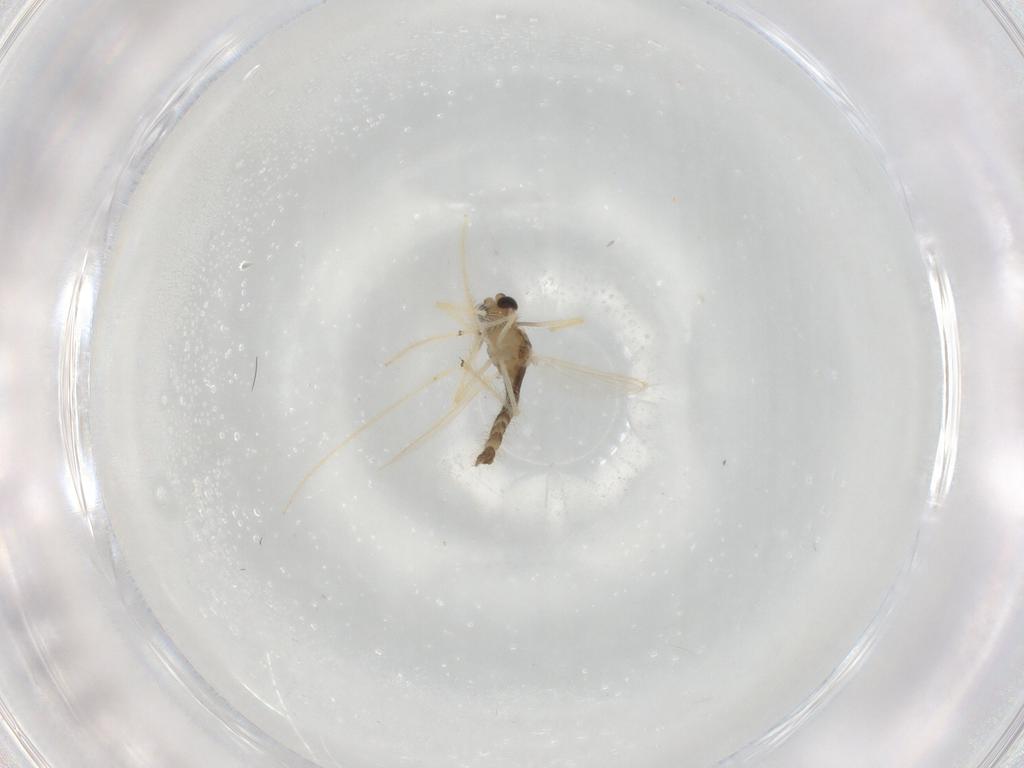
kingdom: Animalia
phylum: Arthropoda
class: Insecta
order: Diptera
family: Chironomidae
